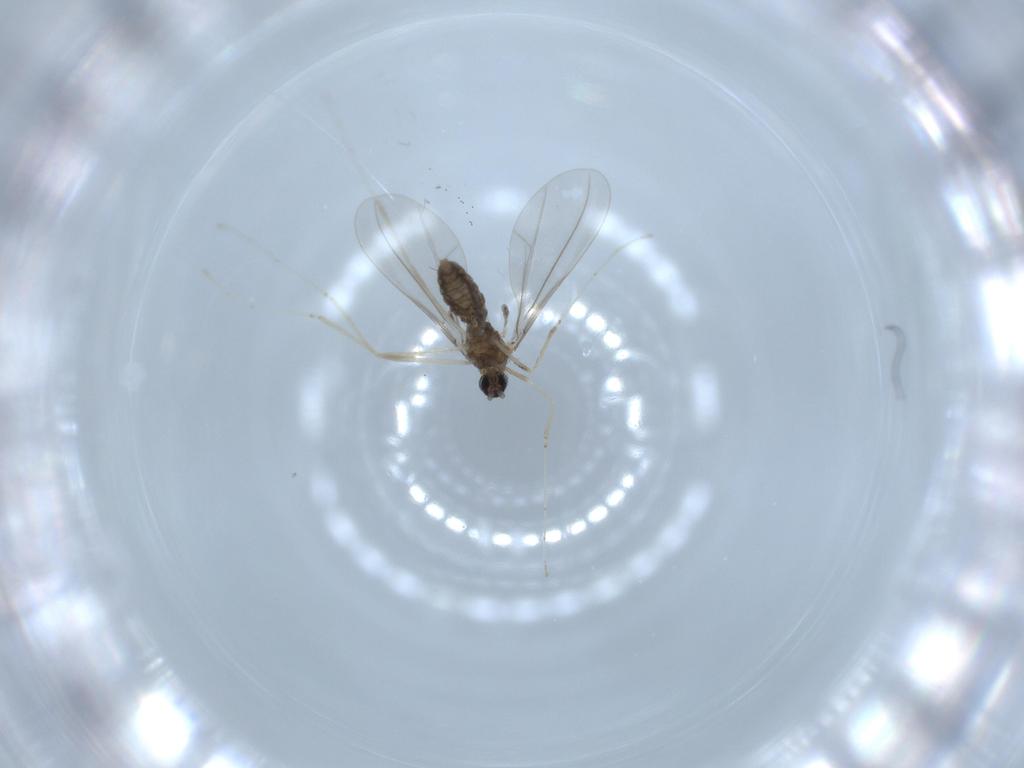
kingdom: Animalia
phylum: Arthropoda
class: Insecta
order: Diptera
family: Cecidomyiidae
